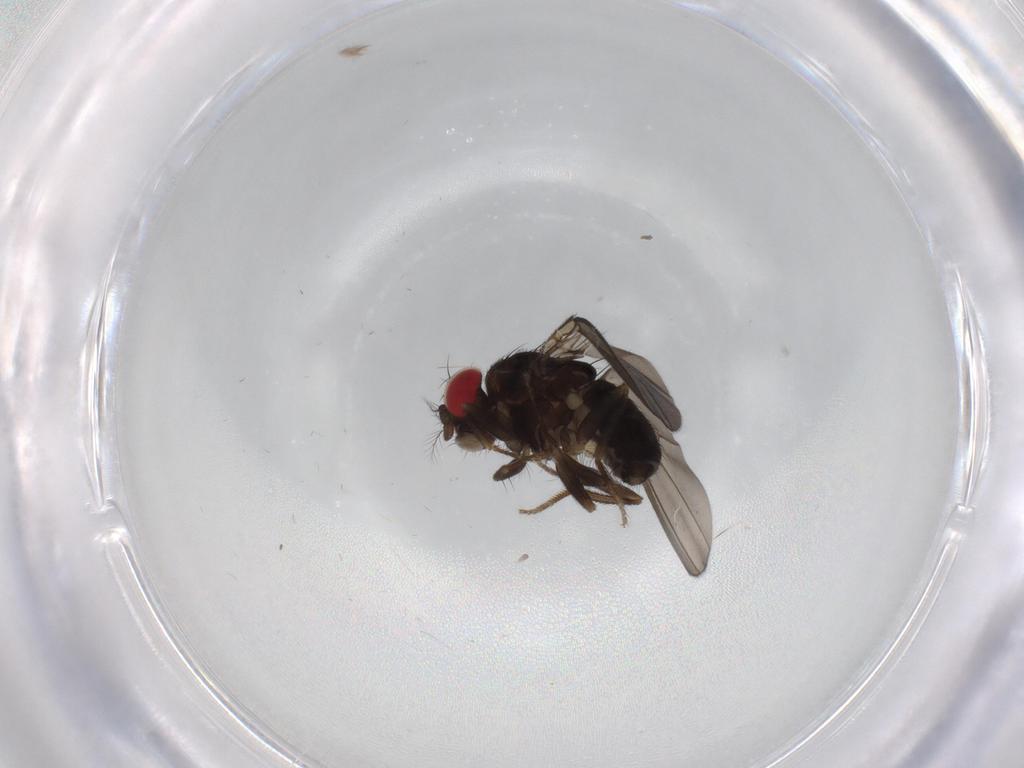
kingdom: Animalia
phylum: Arthropoda
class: Insecta
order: Diptera
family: Drosophilidae
